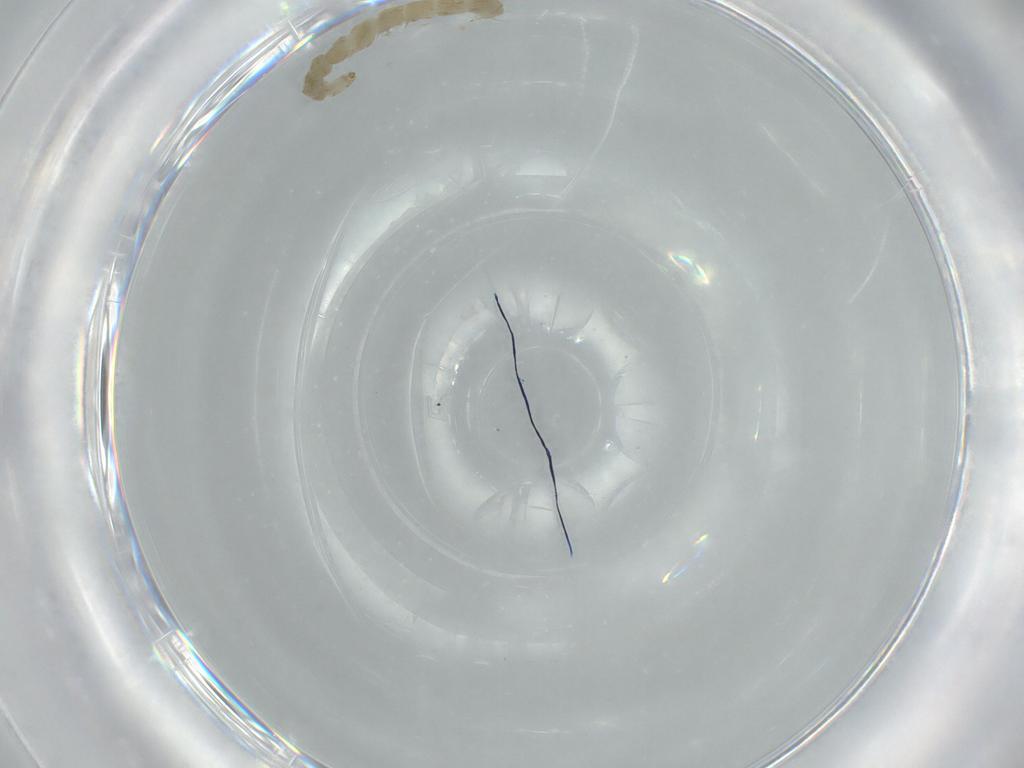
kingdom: Animalia
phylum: Arthropoda
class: Insecta
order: Diptera
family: Chironomidae
